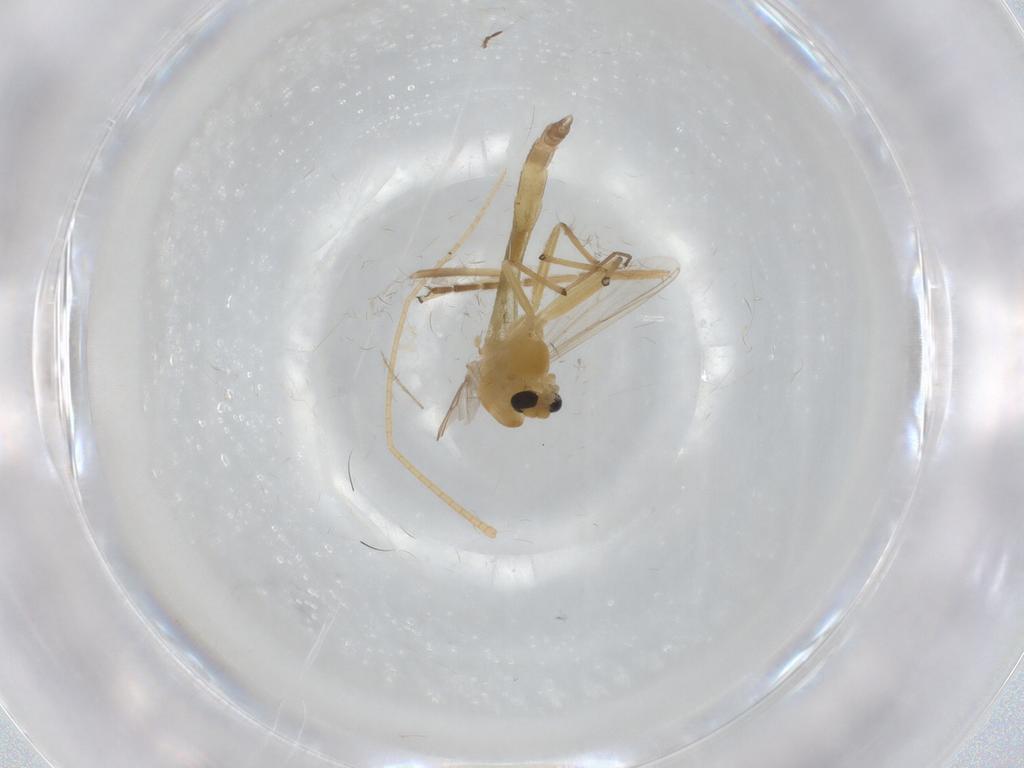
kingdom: Animalia
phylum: Arthropoda
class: Insecta
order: Diptera
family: Chironomidae
